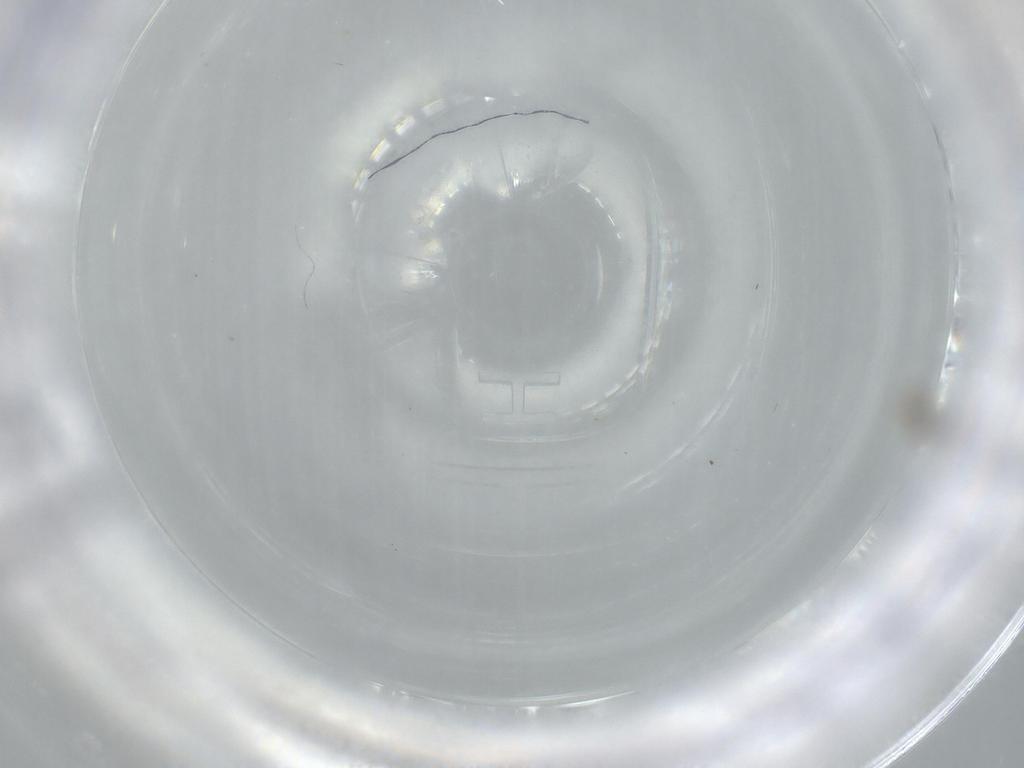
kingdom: Animalia
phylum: Arthropoda
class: Insecta
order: Psocodea
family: Lepidopsocidae
